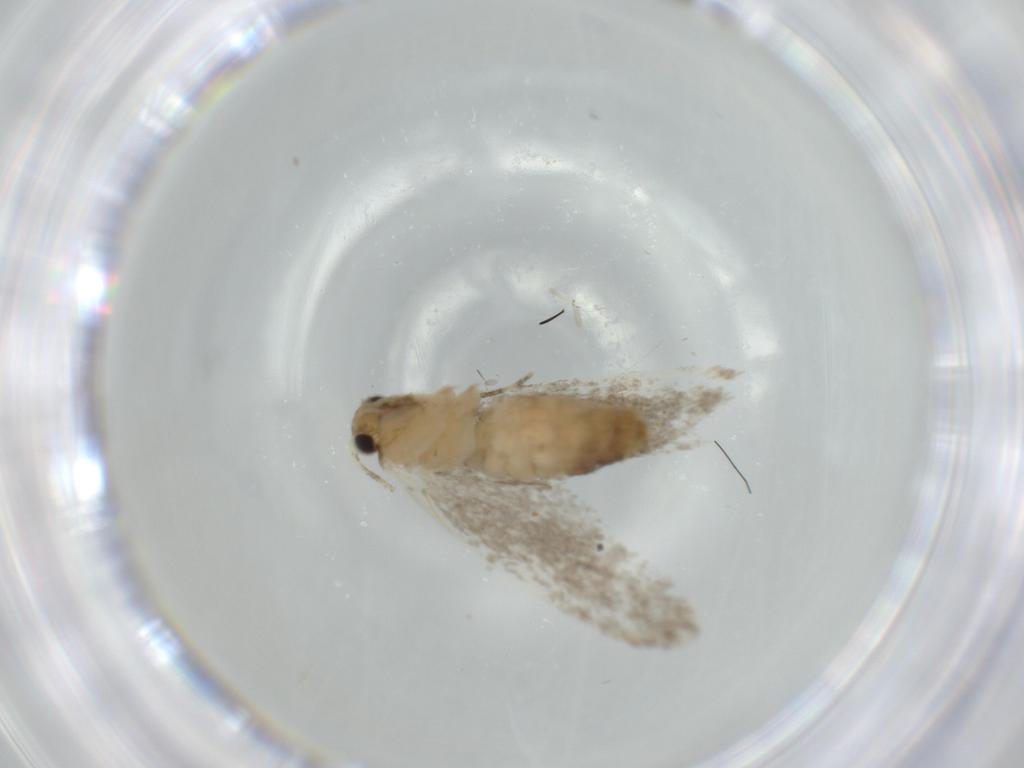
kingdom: Animalia
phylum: Arthropoda
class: Insecta
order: Lepidoptera
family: Tineidae
